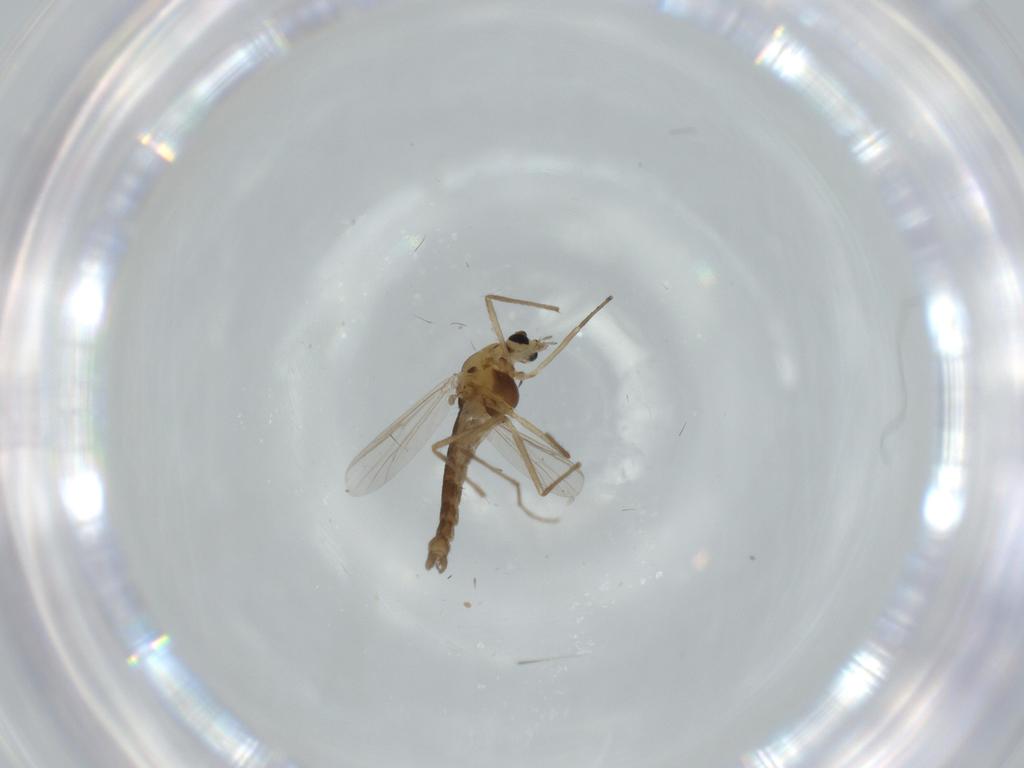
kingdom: Animalia
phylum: Arthropoda
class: Insecta
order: Diptera
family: Chironomidae
